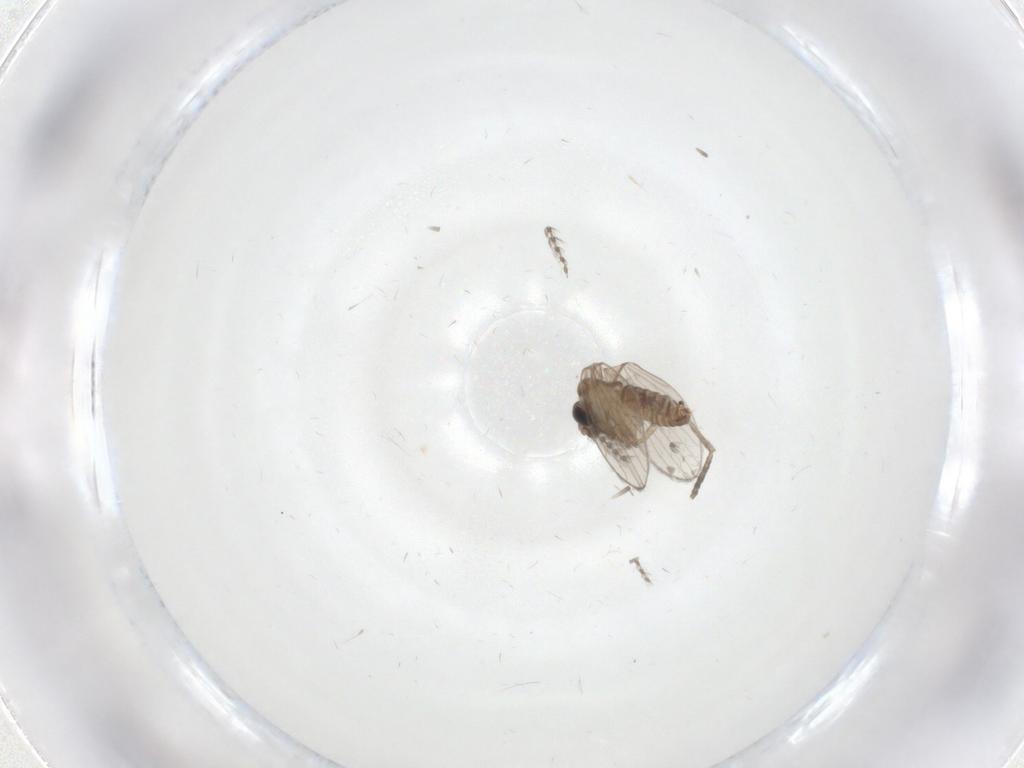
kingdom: Animalia
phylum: Arthropoda
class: Insecta
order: Diptera
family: Psychodidae
